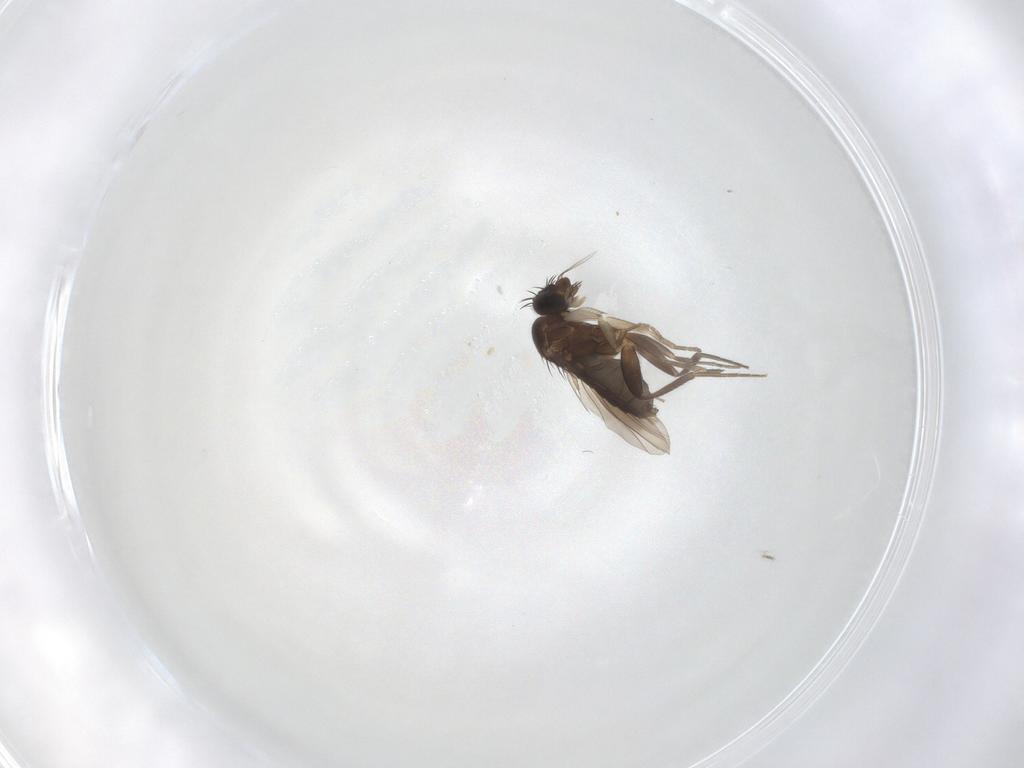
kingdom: Animalia
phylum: Arthropoda
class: Insecta
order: Diptera
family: Phoridae
